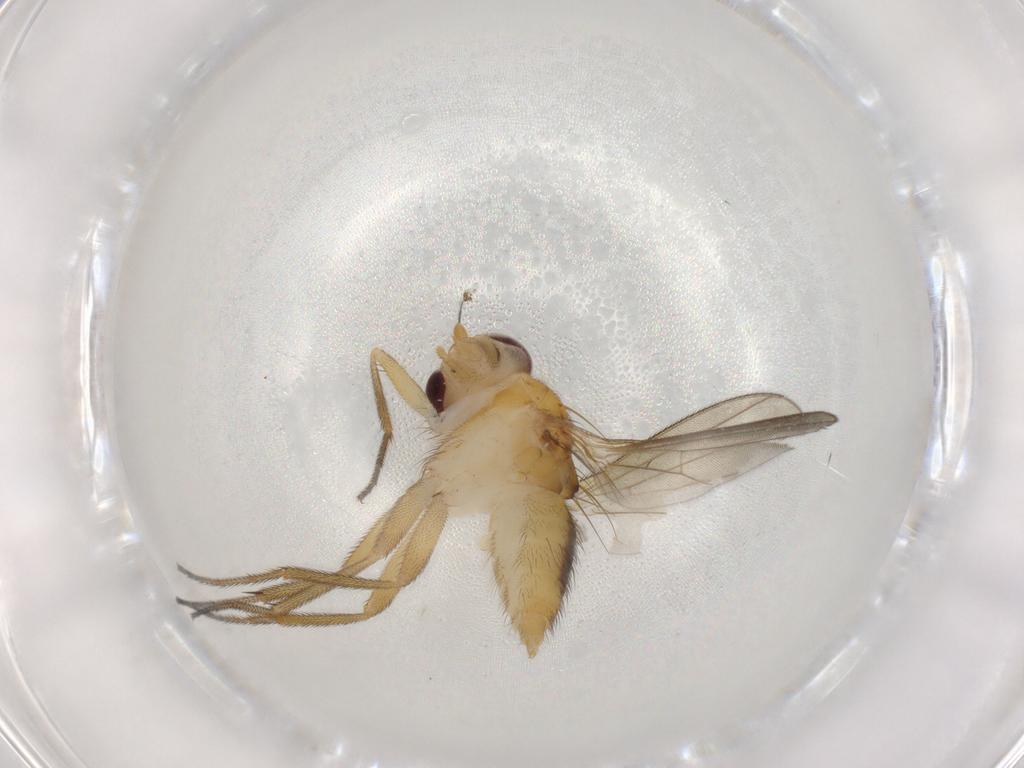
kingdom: Animalia
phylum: Arthropoda
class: Insecta
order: Diptera
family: Clusiidae
